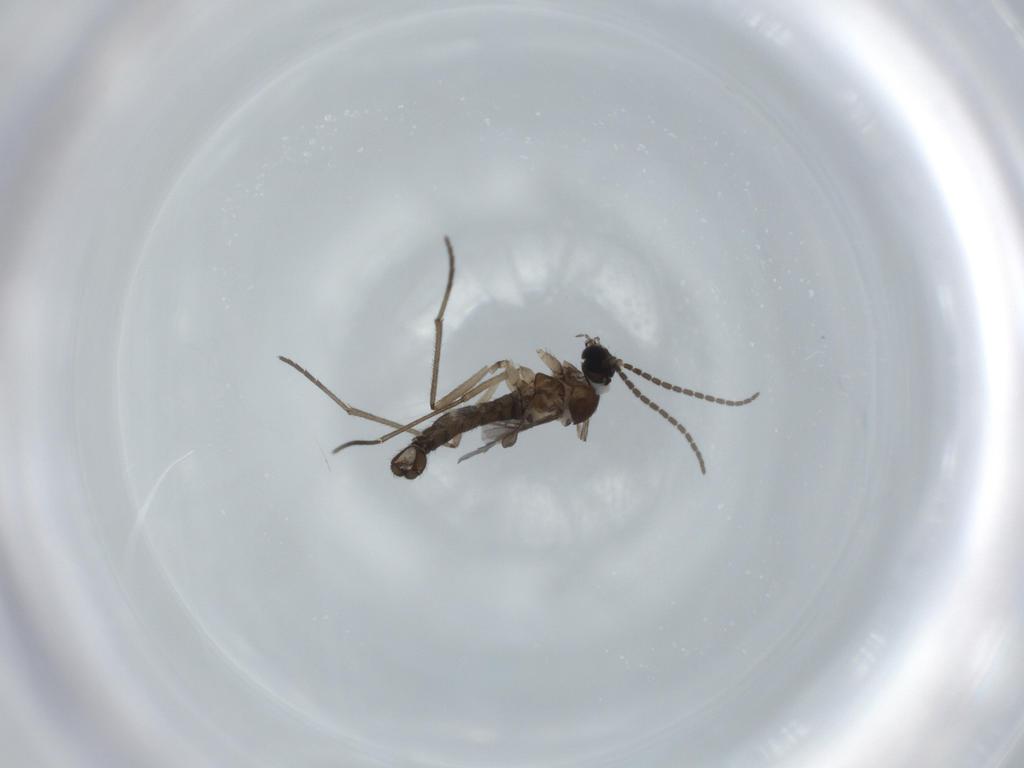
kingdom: Animalia
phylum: Arthropoda
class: Insecta
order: Diptera
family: Sciaridae
